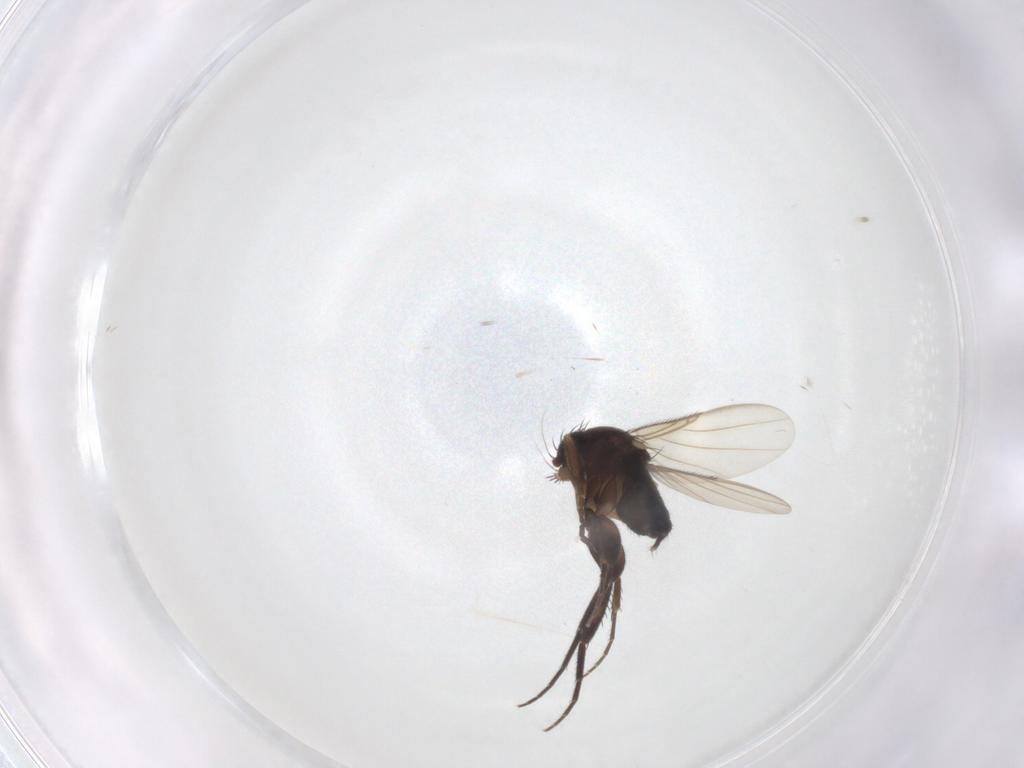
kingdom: Animalia
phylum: Arthropoda
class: Insecta
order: Diptera
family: Phoridae
